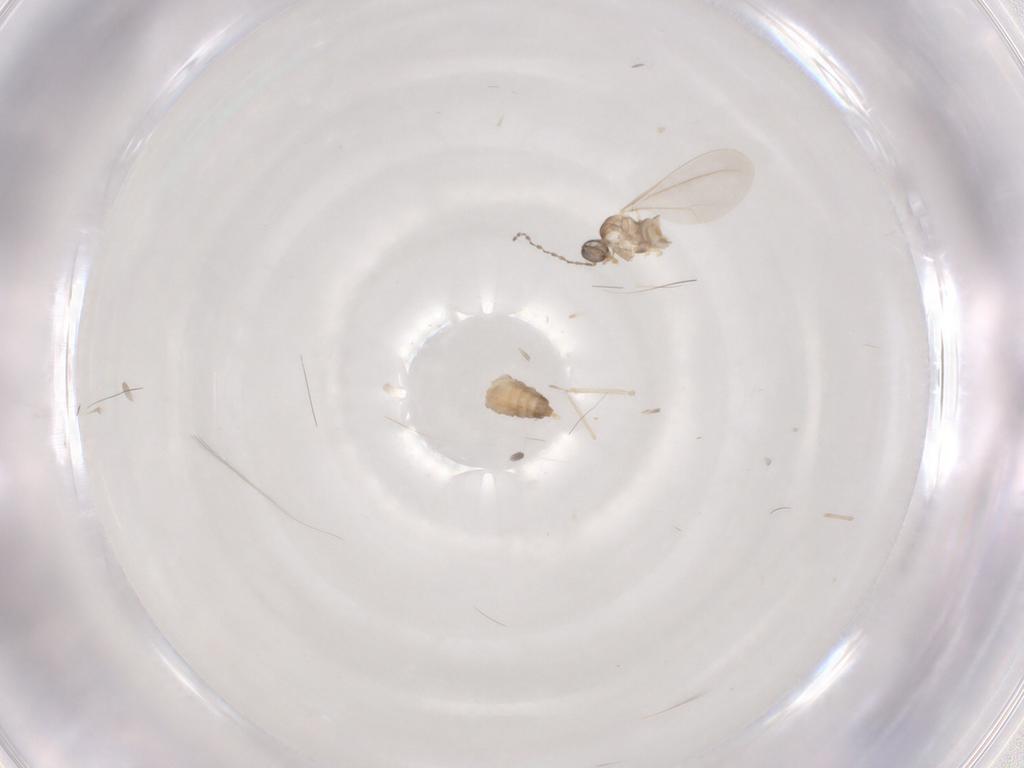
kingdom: Animalia
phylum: Arthropoda
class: Insecta
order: Diptera
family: Cecidomyiidae
